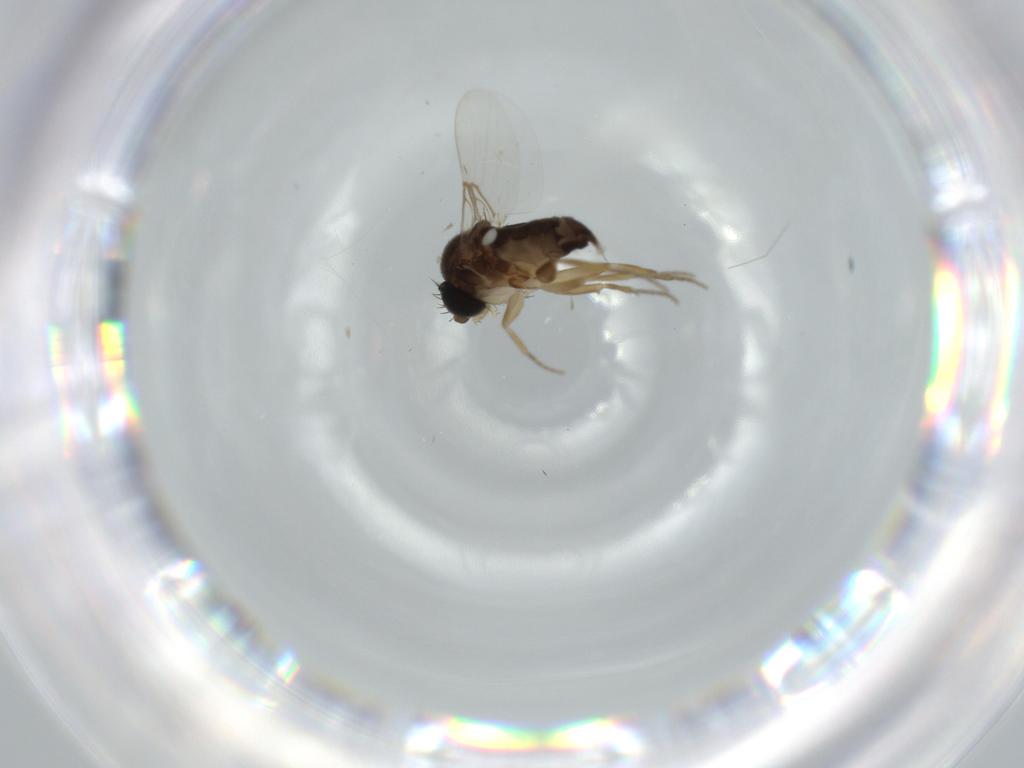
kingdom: Animalia
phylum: Arthropoda
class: Insecta
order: Diptera
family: Phoridae
